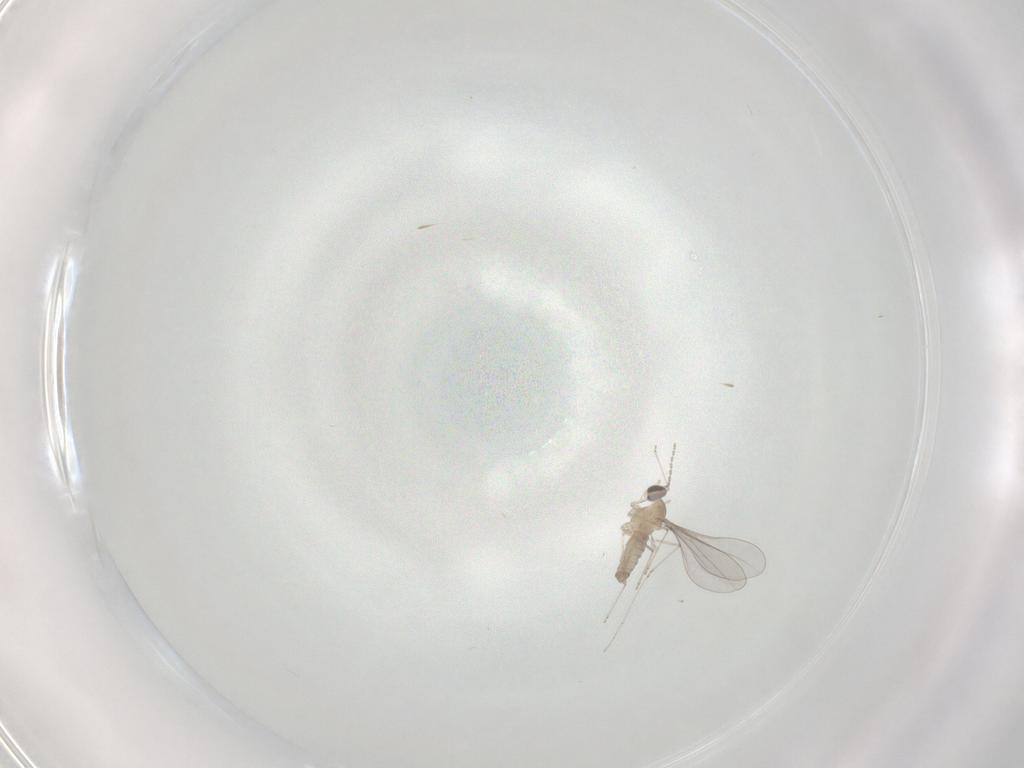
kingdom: Animalia
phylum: Arthropoda
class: Insecta
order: Diptera
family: Cecidomyiidae
